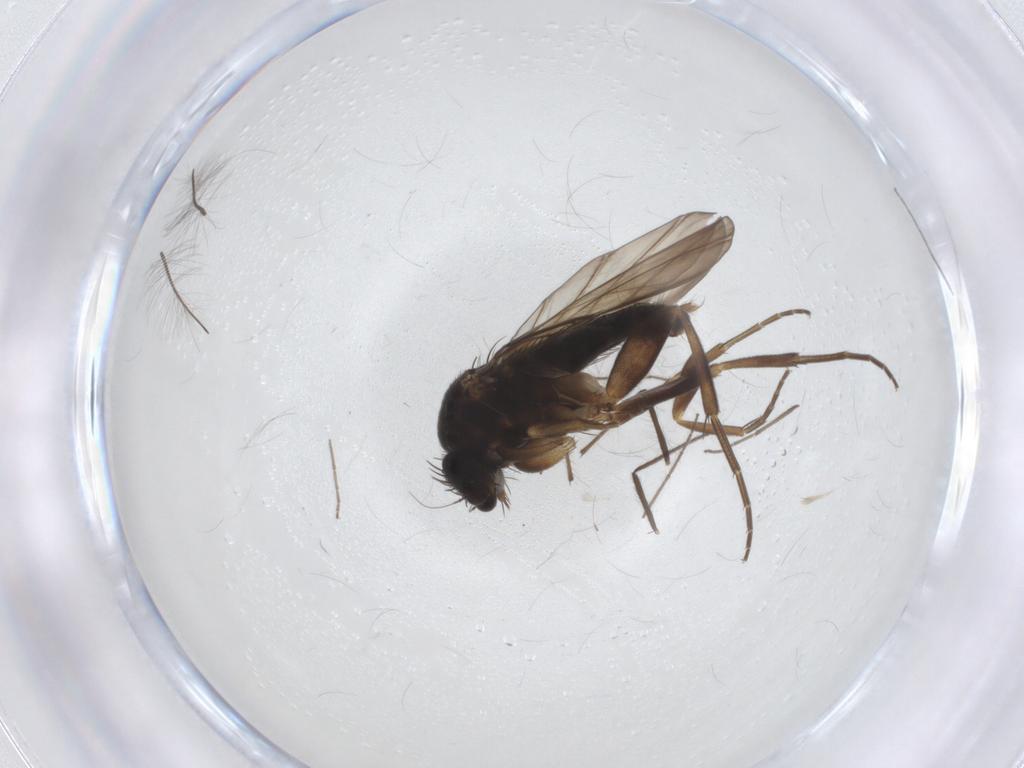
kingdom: Animalia
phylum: Arthropoda
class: Insecta
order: Diptera
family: Phoridae
